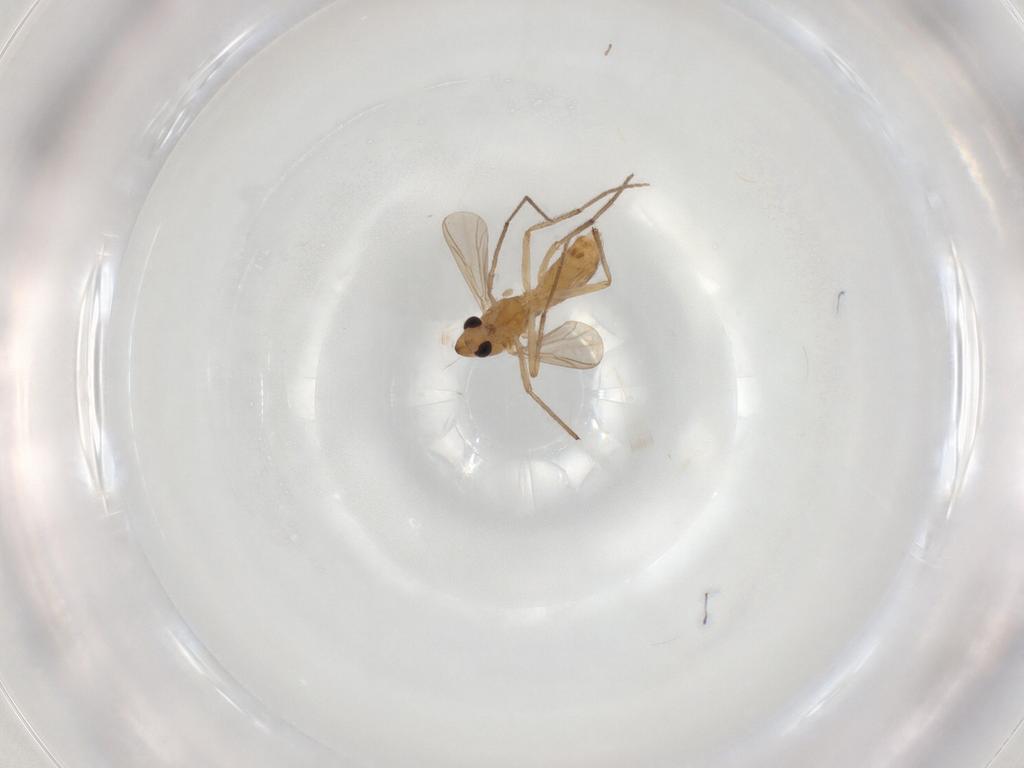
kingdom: Animalia
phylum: Arthropoda
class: Insecta
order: Diptera
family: Chironomidae
